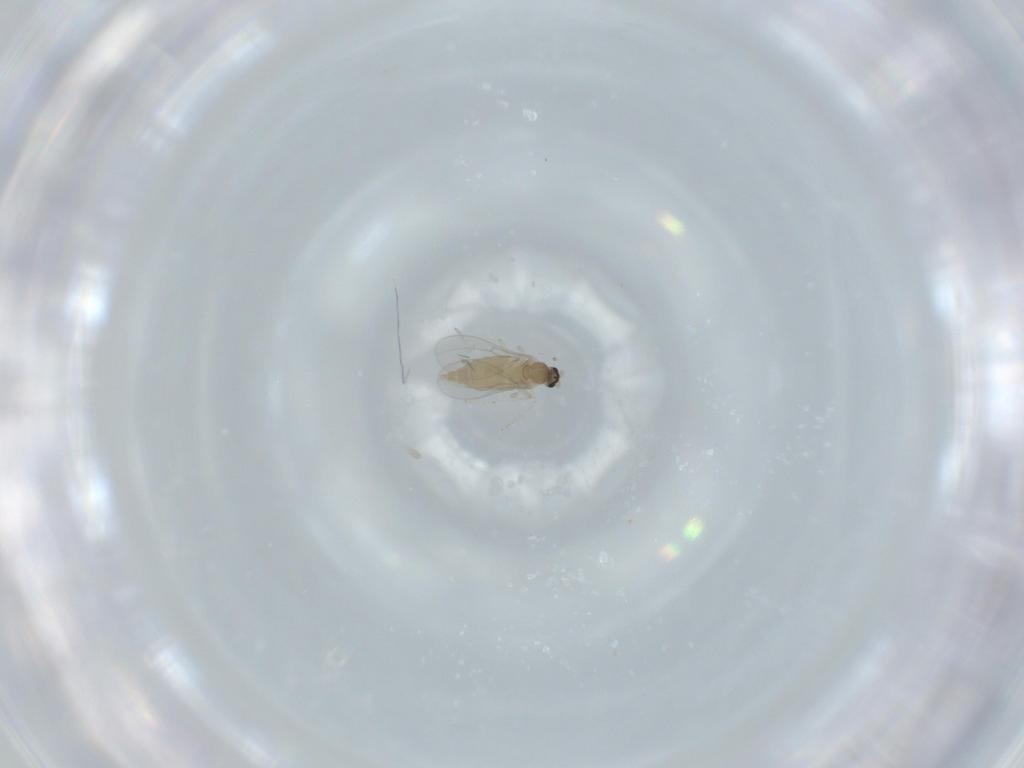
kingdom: Animalia
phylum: Arthropoda
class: Insecta
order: Diptera
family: Cecidomyiidae
